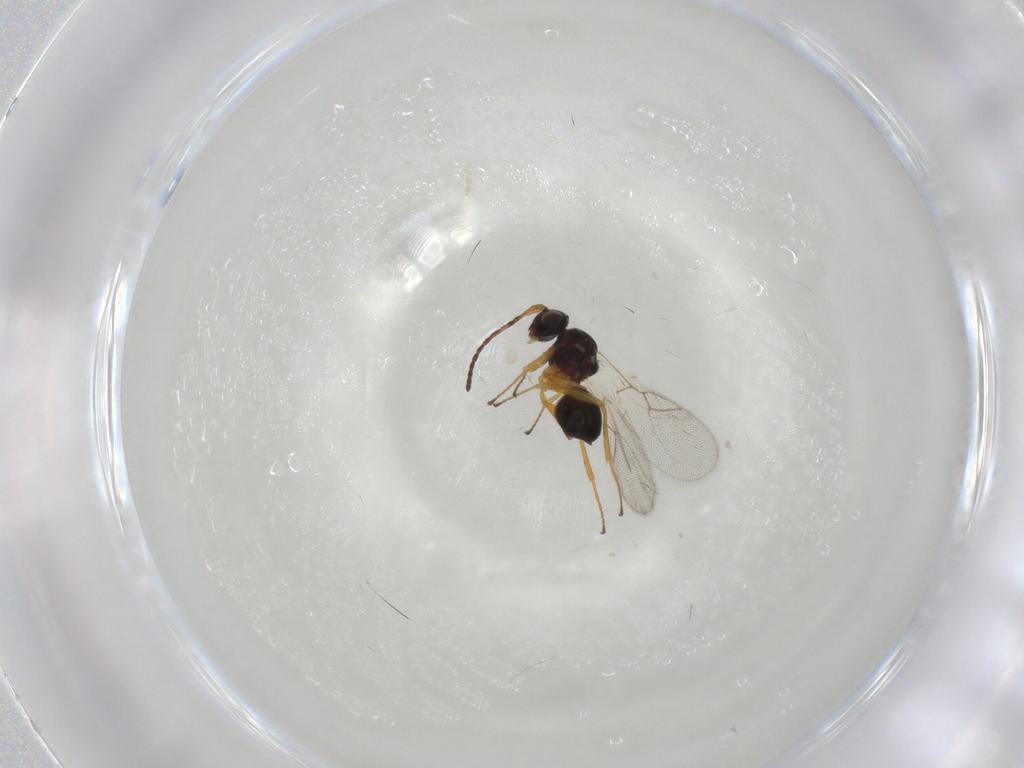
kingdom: Animalia
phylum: Arthropoda
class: Insecta
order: Hymenoptera
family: Figitidae
